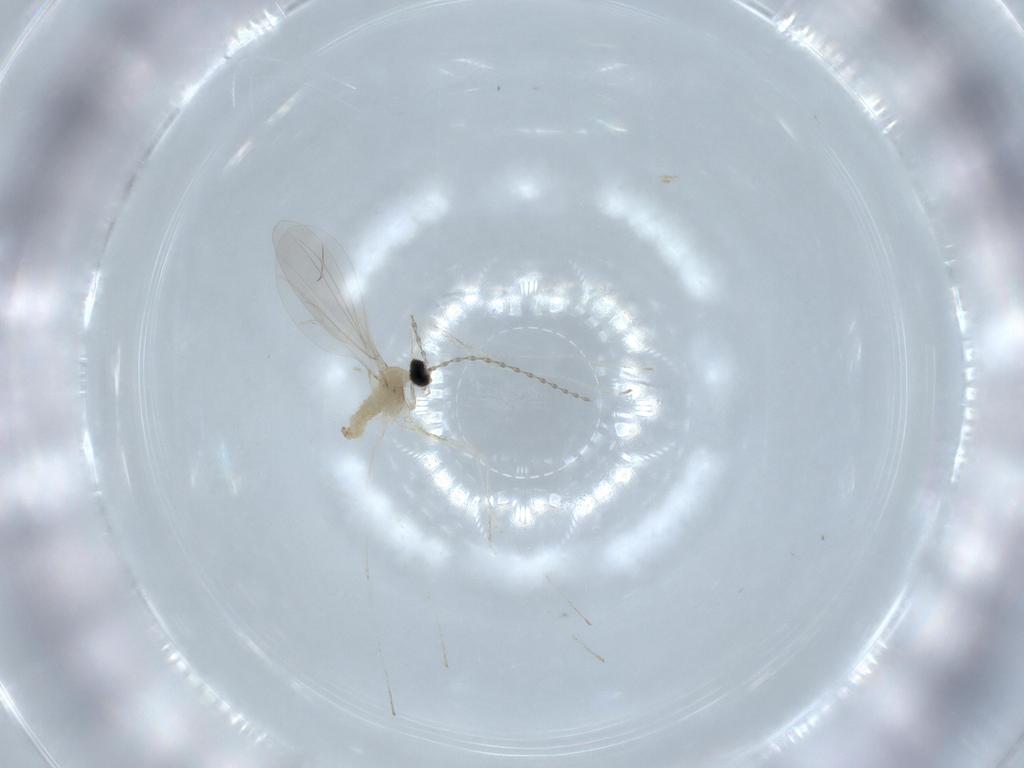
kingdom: Animalia
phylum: Arthropoda
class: Insecta
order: Diptera
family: Cecidomyiidae
